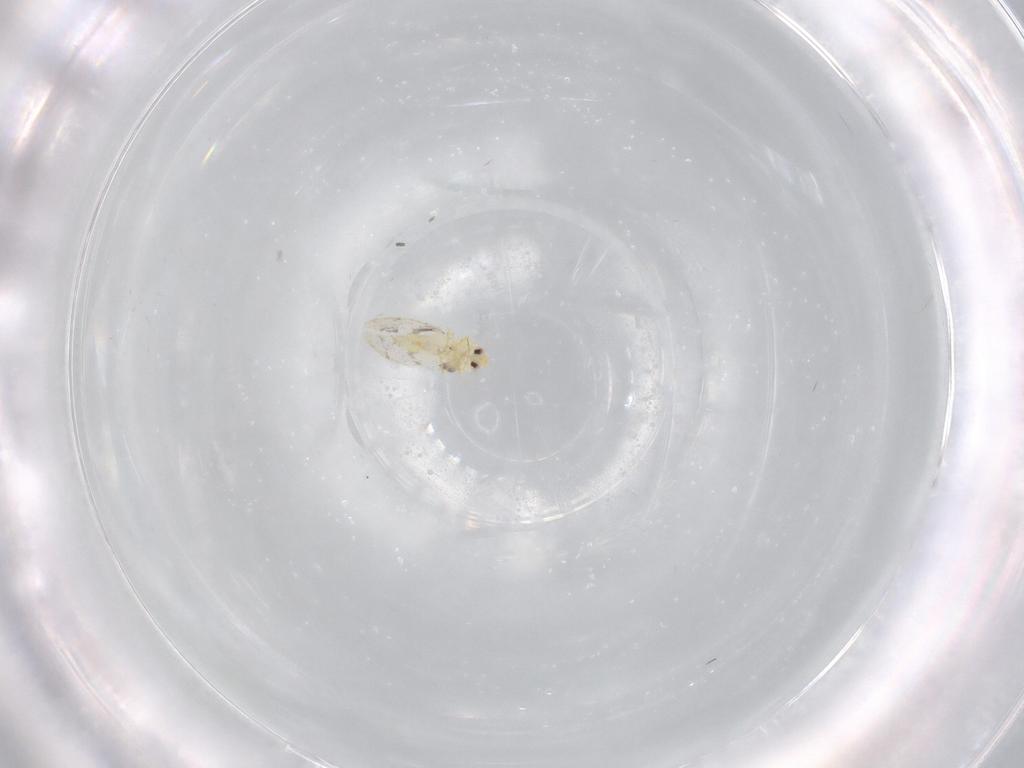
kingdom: Animalia
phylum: Arthropoda
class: Insecta
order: Hemiptera
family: Aleyrodidae
